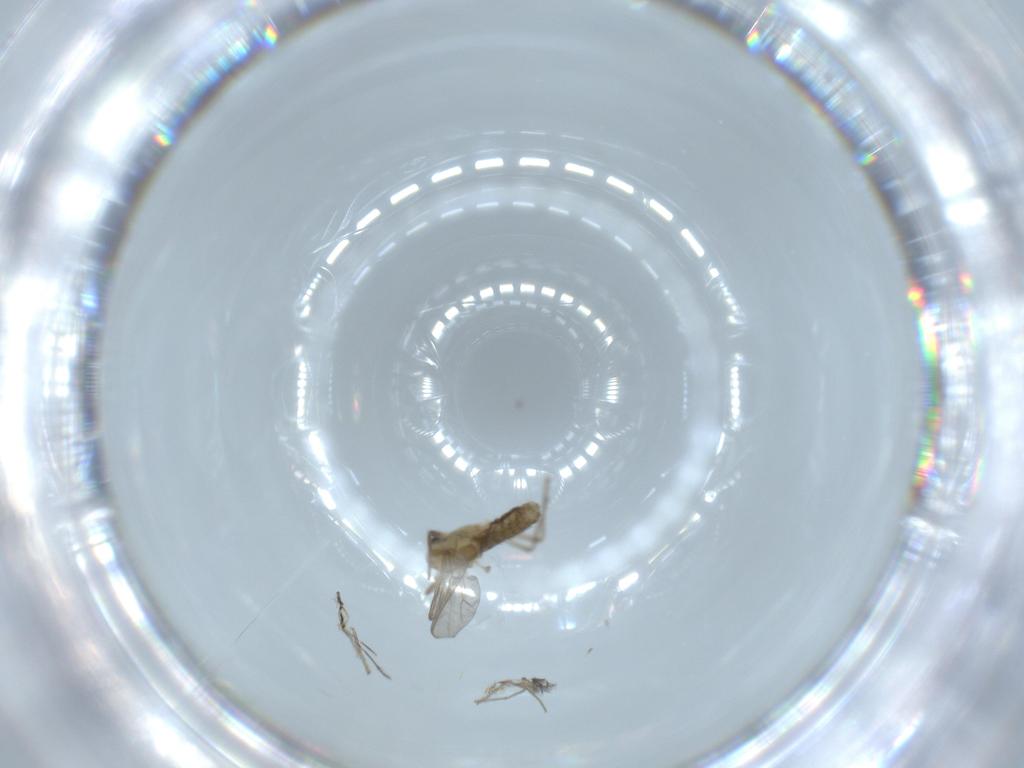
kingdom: Animalia
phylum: Arthropoda
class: Insecta
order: Diptera
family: Chironomidae
